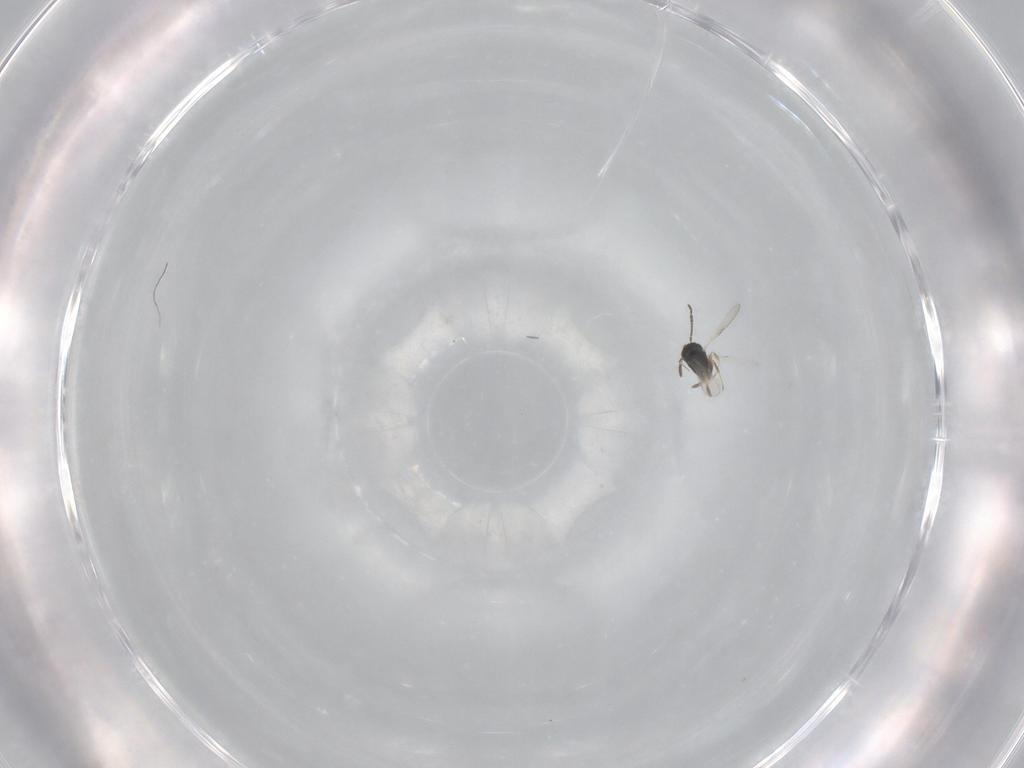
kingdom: Animalia
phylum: Arthropoda
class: Insecta
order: Hymenoptera
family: Scelionidae
